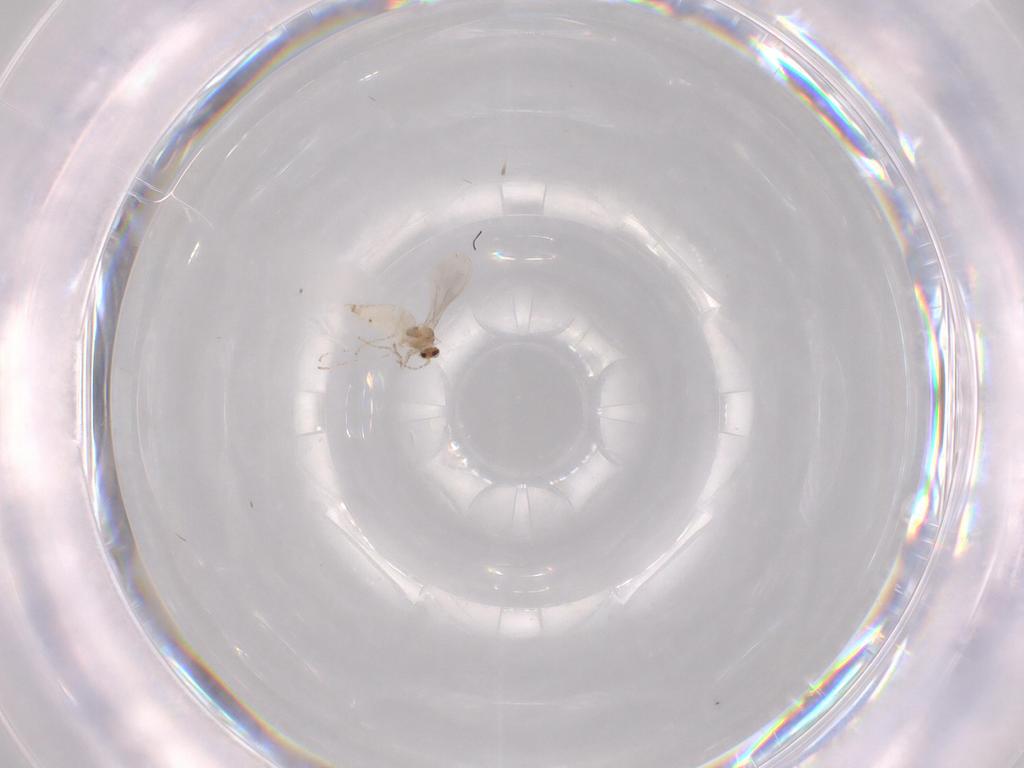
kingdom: Animalia
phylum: Arthropoda
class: Insecta
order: Diptera
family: Cecidomyiidae
